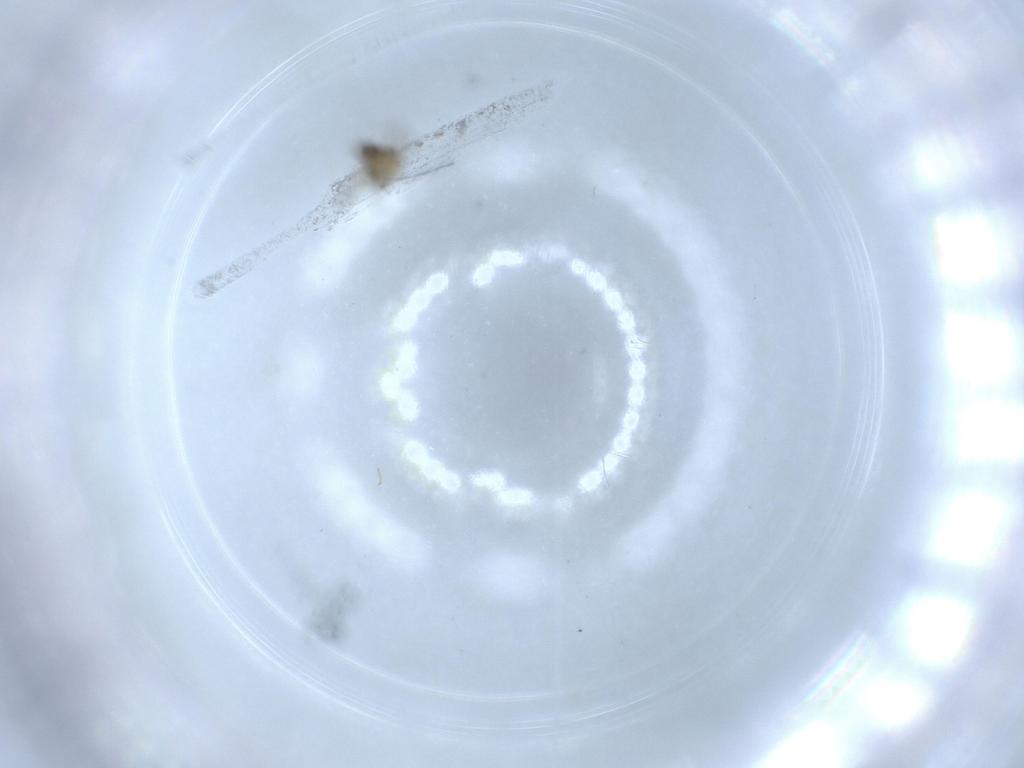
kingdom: Animalia
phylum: Arthropoda
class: Insecta
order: Diptera
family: Chironomidae
